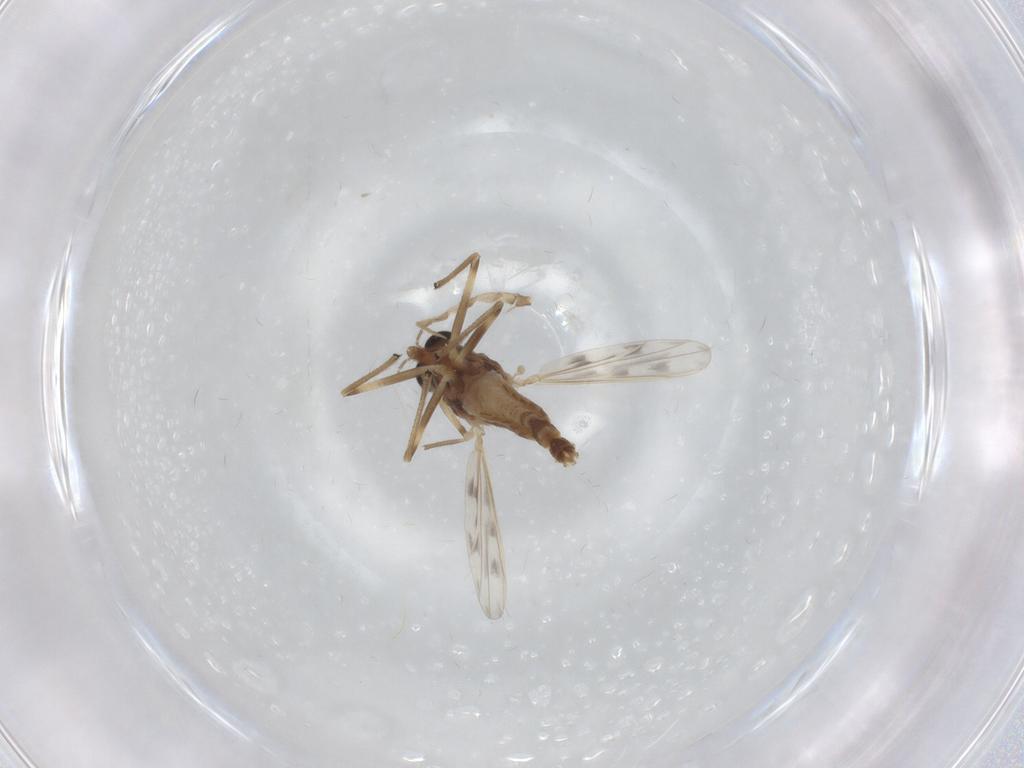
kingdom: Animalia
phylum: Arthropoda
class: Insecta
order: Diptera
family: Chironomidae
